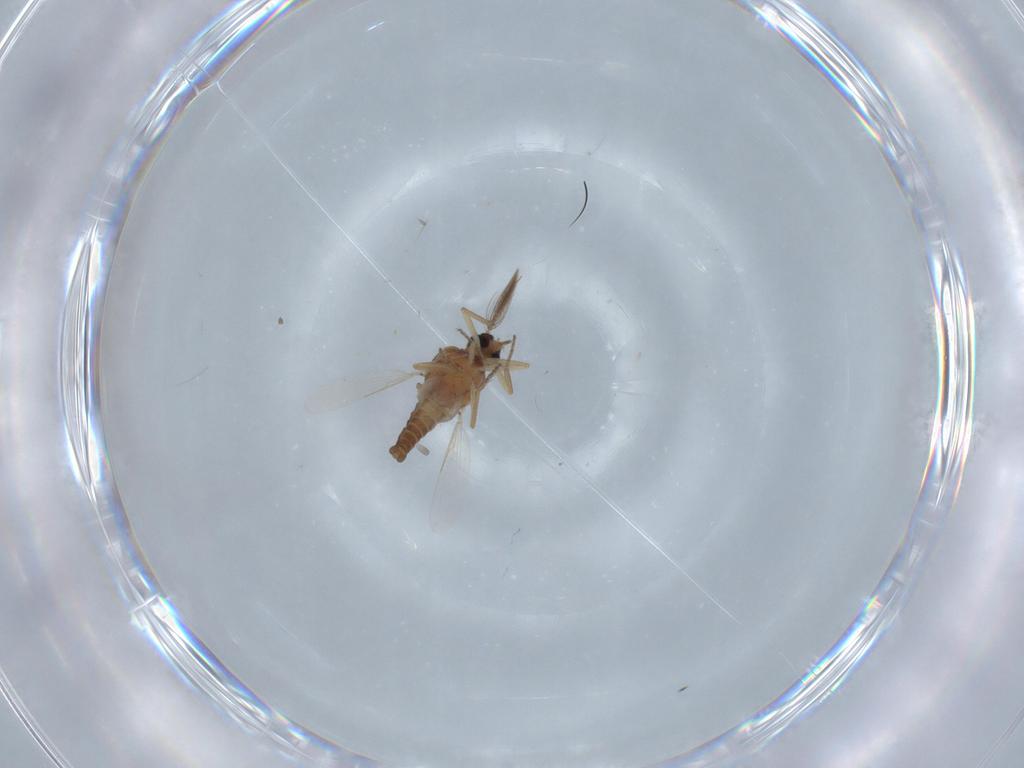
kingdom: Animalia
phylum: Arthropoda
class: Insecta
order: Diptera
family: Ceratopogonidae
